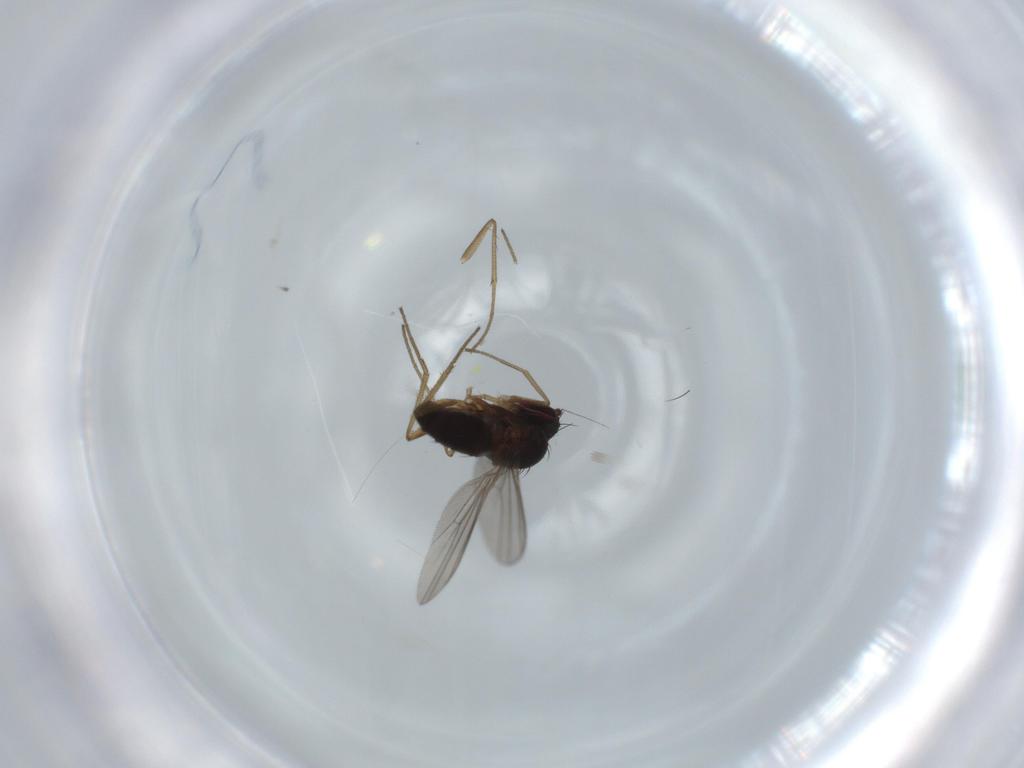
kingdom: Animalia
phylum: Arthropoda
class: Insecta
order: Diptera
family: Dolichopodidae
